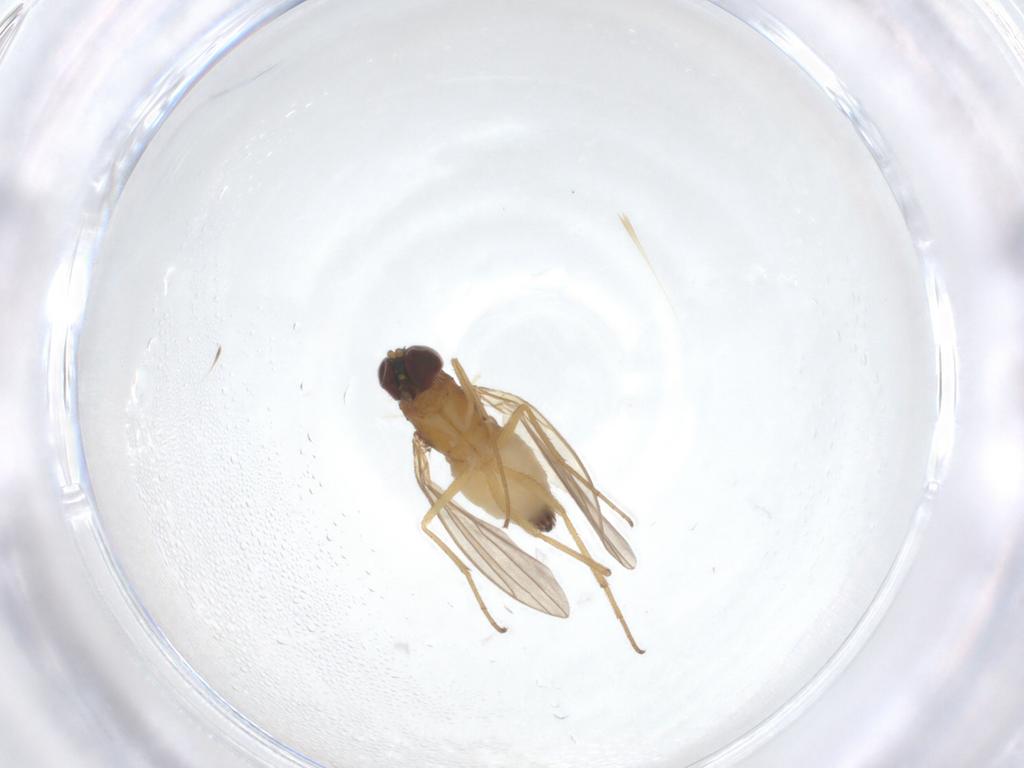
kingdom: Animalia
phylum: Arthropoda
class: Insecta
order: Diptera
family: Dolichopodidae
